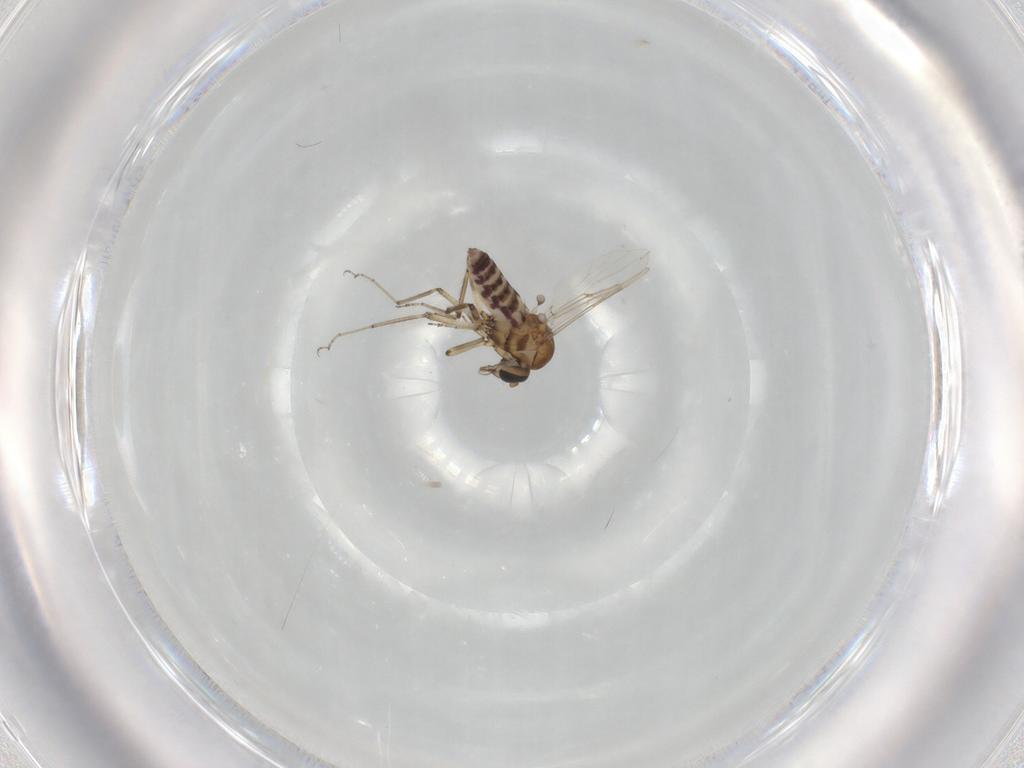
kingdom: Animalia
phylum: Arthropoda
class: Insecta
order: Diptera
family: Ceratopogonidae
